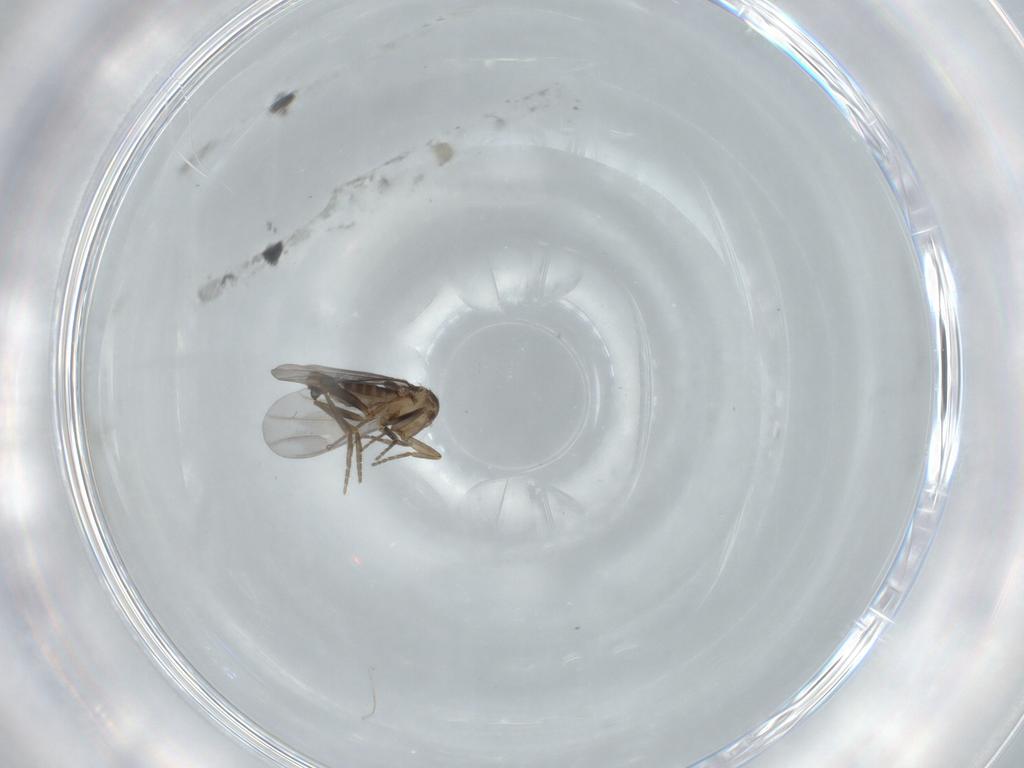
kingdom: Animalia
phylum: Arthropoda
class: Insecta
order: Diptera
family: Phoridae
